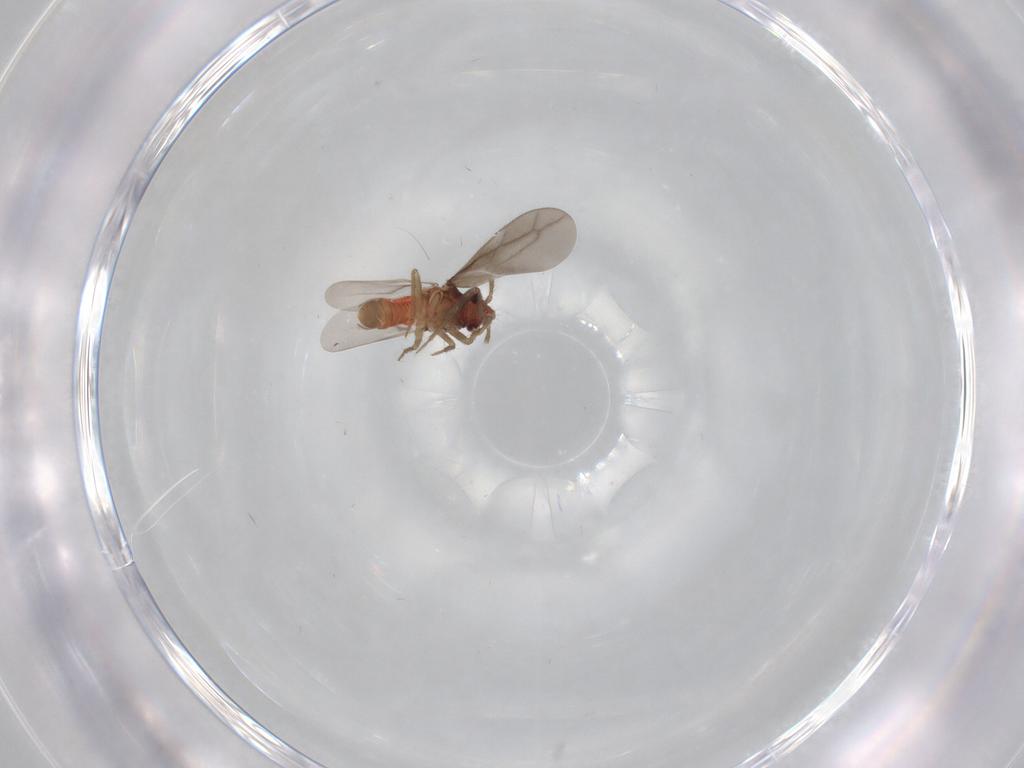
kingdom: Animalia
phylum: Arthropoda
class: Insecta
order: Hemiptera
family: Ceratocombidae
